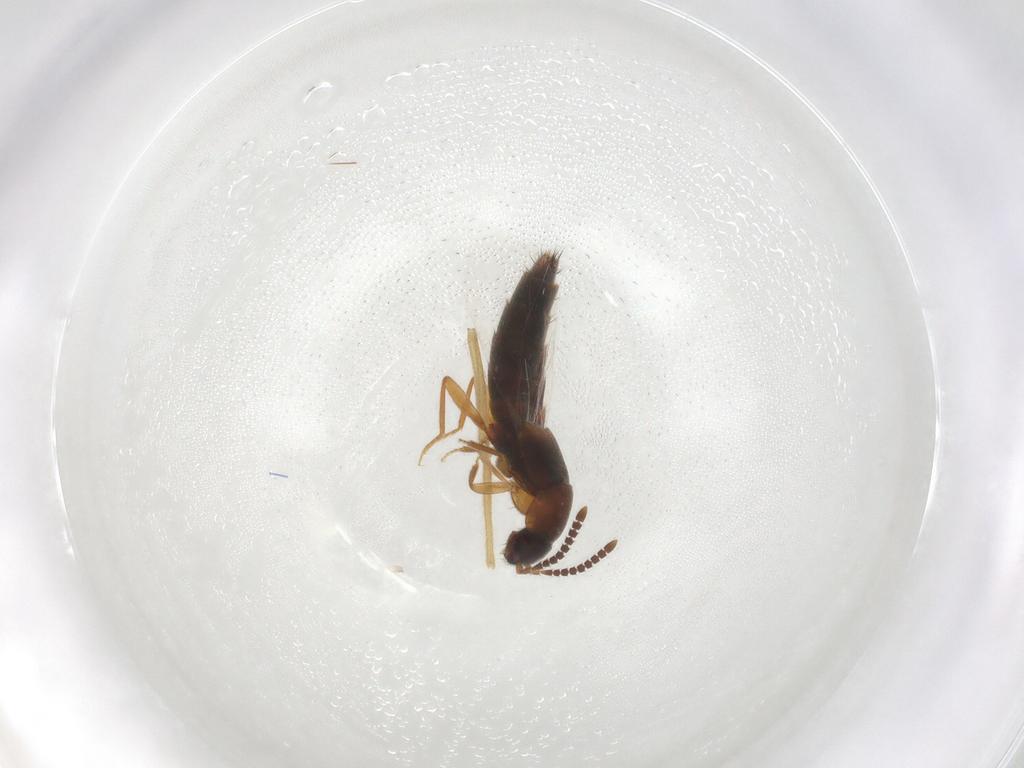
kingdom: Animalia
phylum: Arthropoda
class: Insecta
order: Coleoptera
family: Staphylinidae
